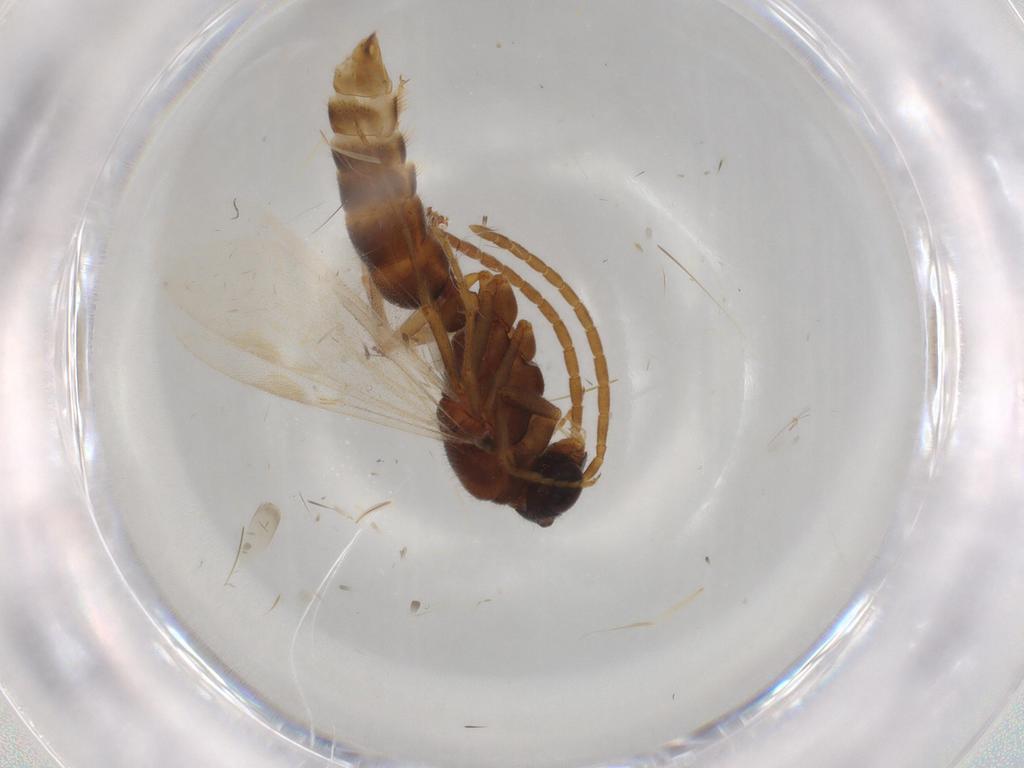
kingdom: Animalia
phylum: Arthropoda
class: Insecta
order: Hymenoptera
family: Formicidae
